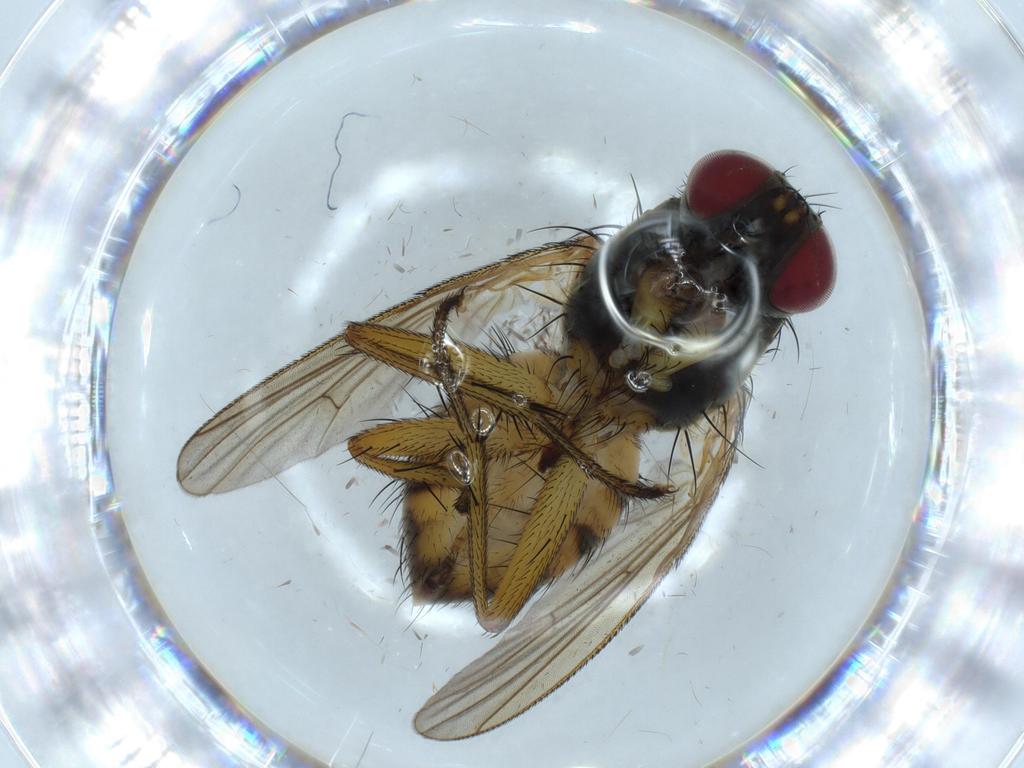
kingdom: Animalia
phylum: Arthropoda
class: Insecta
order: Diptera
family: Muscidae
